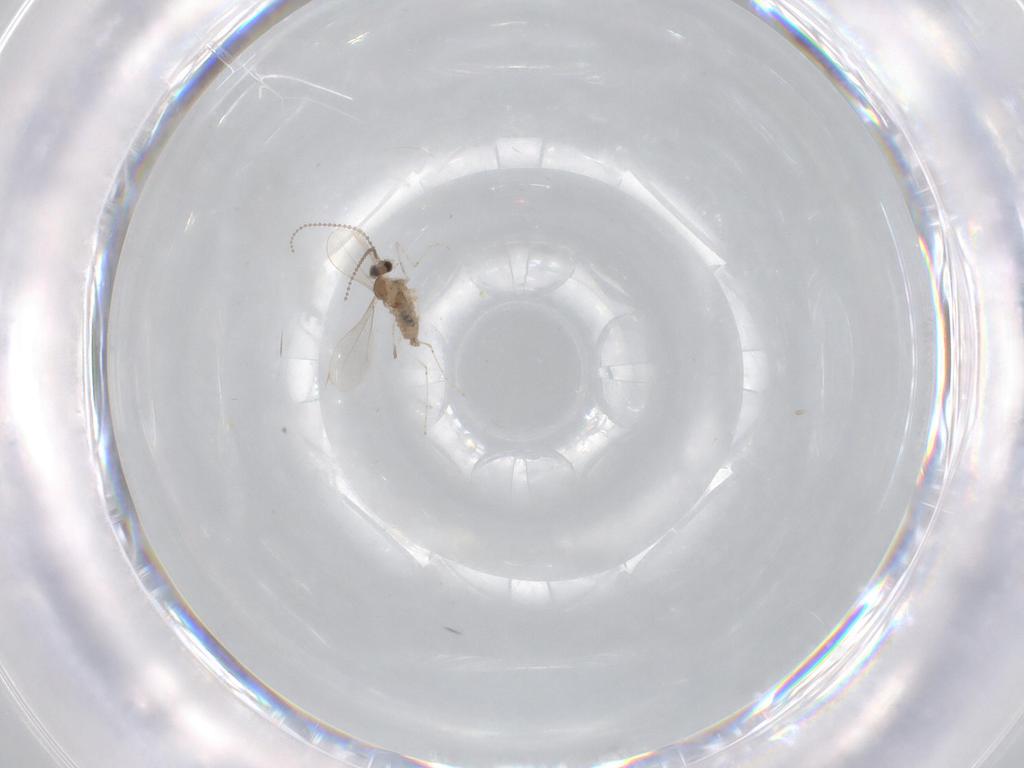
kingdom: Animalia
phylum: Arthropoda
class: Insecta
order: Diptera
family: Cecidomyiidae
